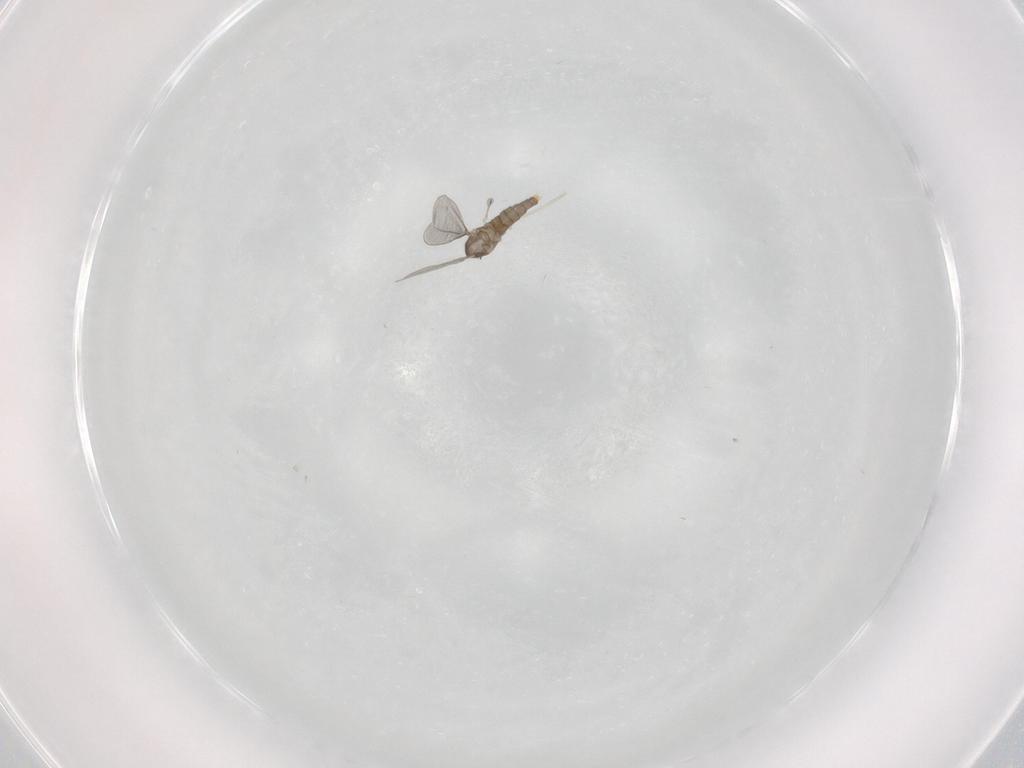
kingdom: Animalia
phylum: Arthropoda
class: Insecta
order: Diptera
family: Cecidomyiidae
